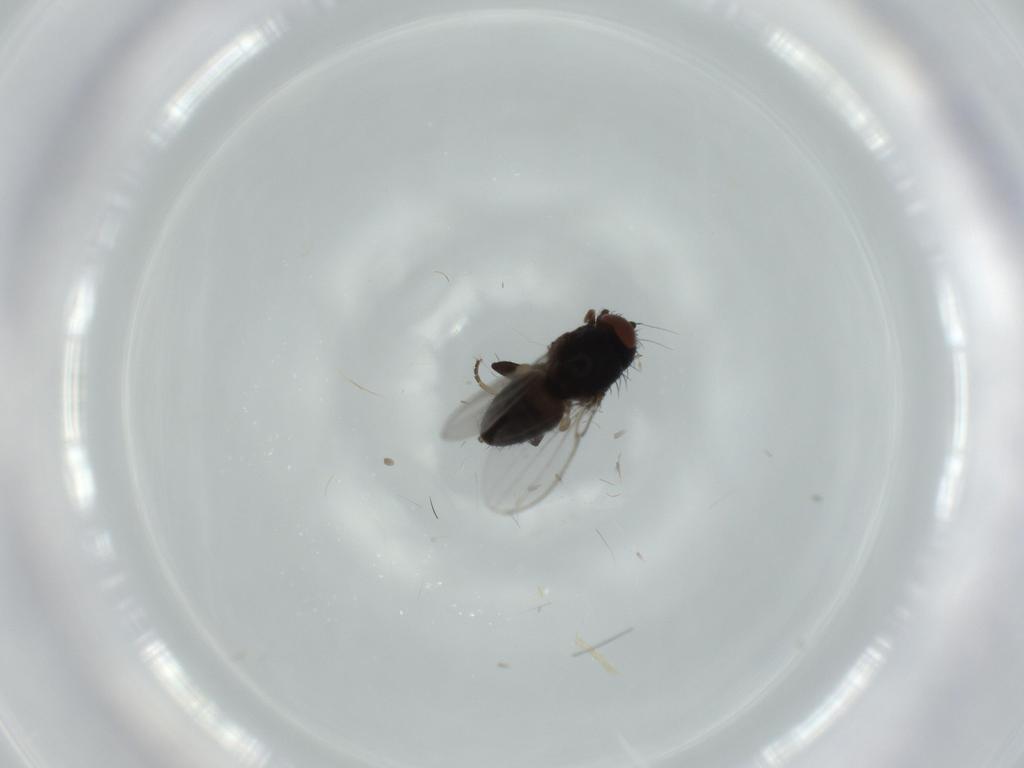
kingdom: Animalia
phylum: Arthropoda
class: Insecta
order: Diptera
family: Milichiidae
